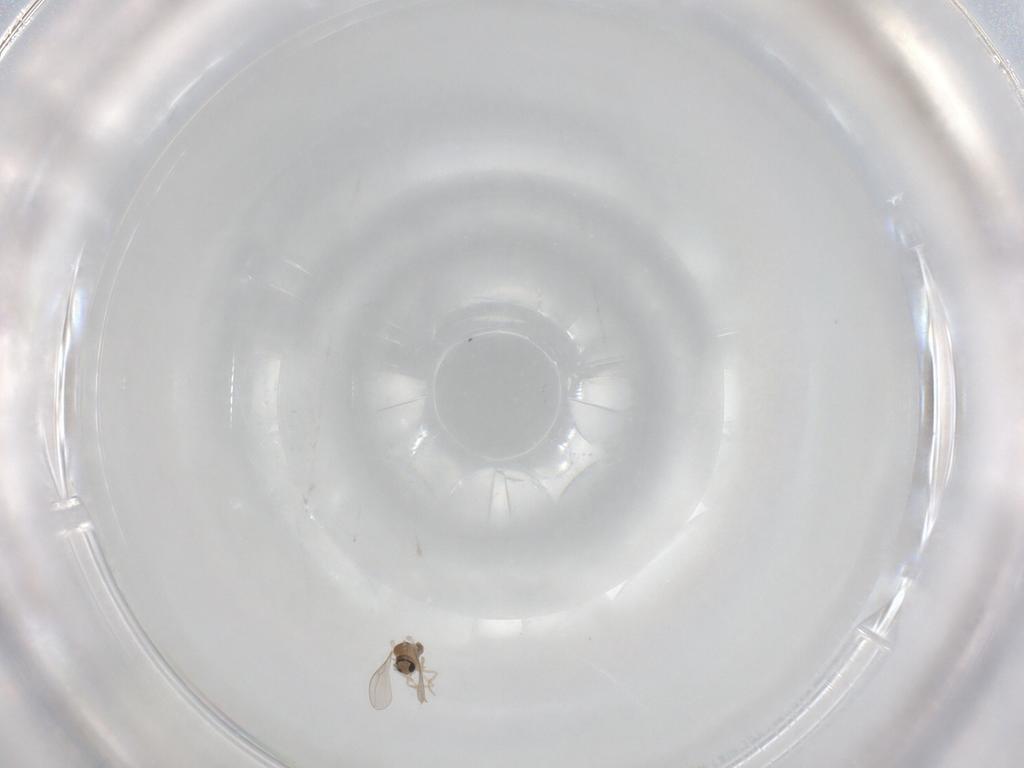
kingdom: Animalia
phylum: Arthropoda
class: Insecta
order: Diptera
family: Cecidomyiidae
